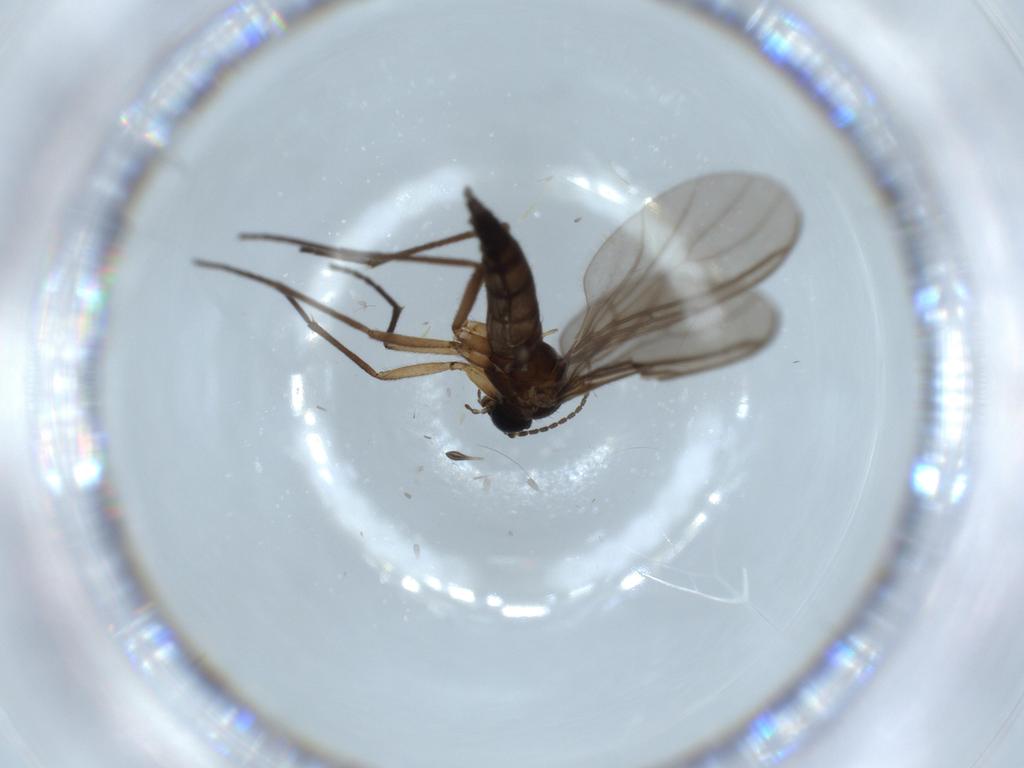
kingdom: Animalia
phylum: Arthropoda
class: Insecta
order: Diptera
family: Sciaridae
